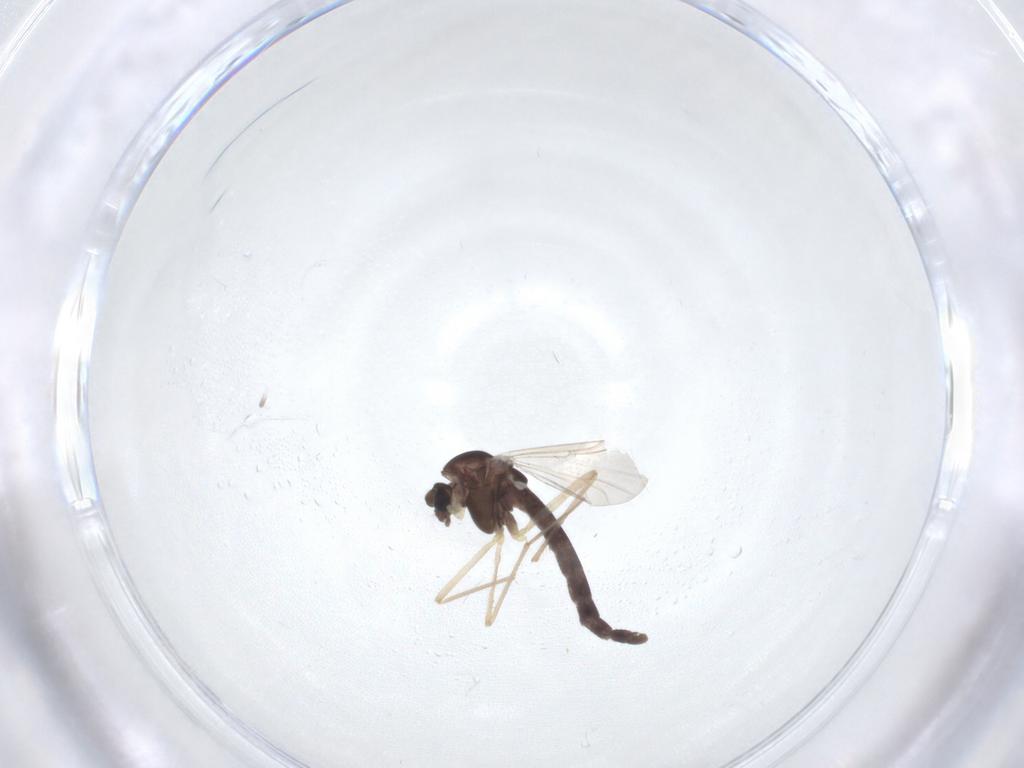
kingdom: Animalia
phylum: Arthropoda
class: Insecta
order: Diptera
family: Chironomidae
